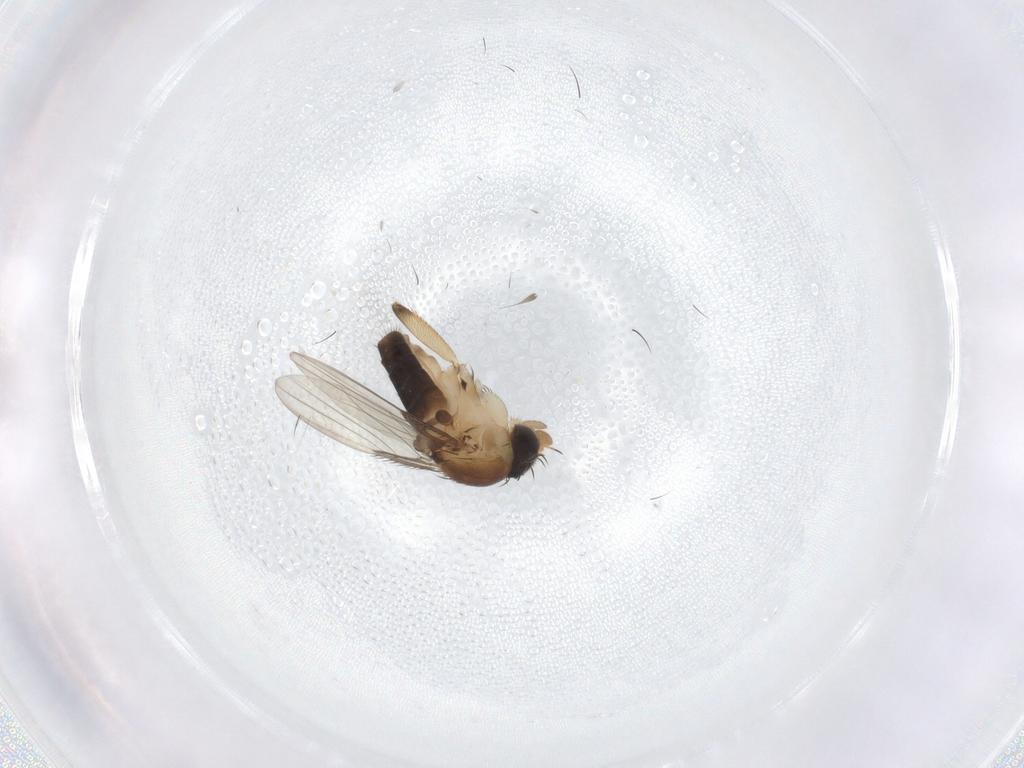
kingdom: Animalia
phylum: Arthropoda
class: Insecta
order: Diptera
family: Phoridae
